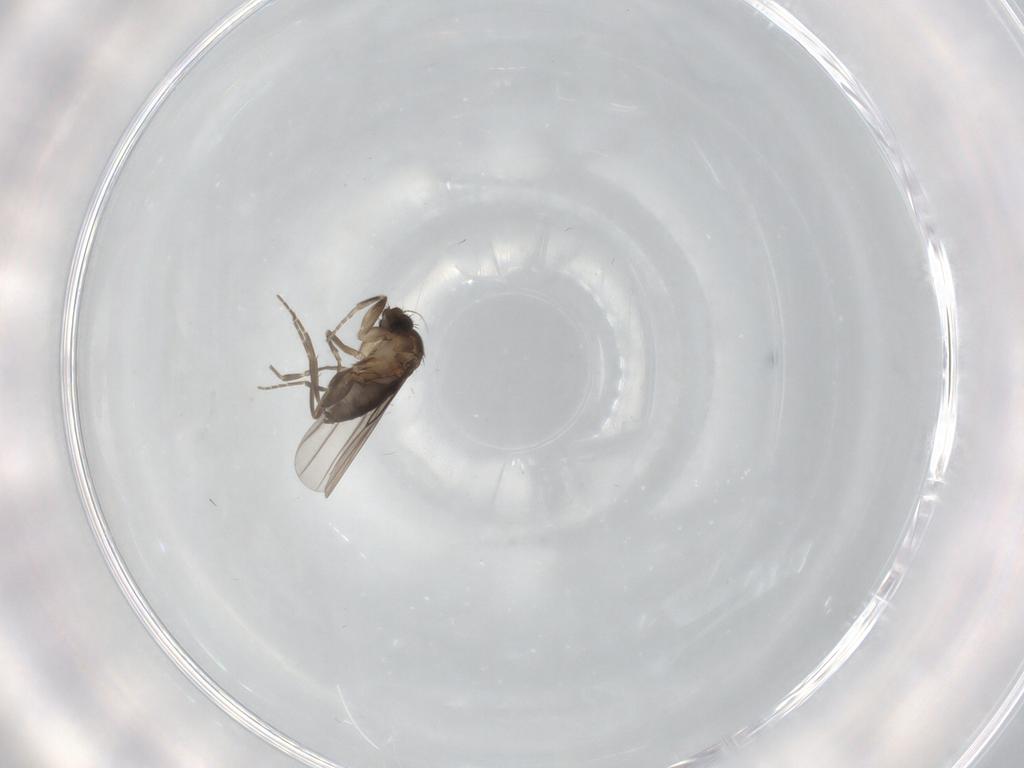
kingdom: Animalia
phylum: Arthropoda
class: Insecta
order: Diptera
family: Phoridae
